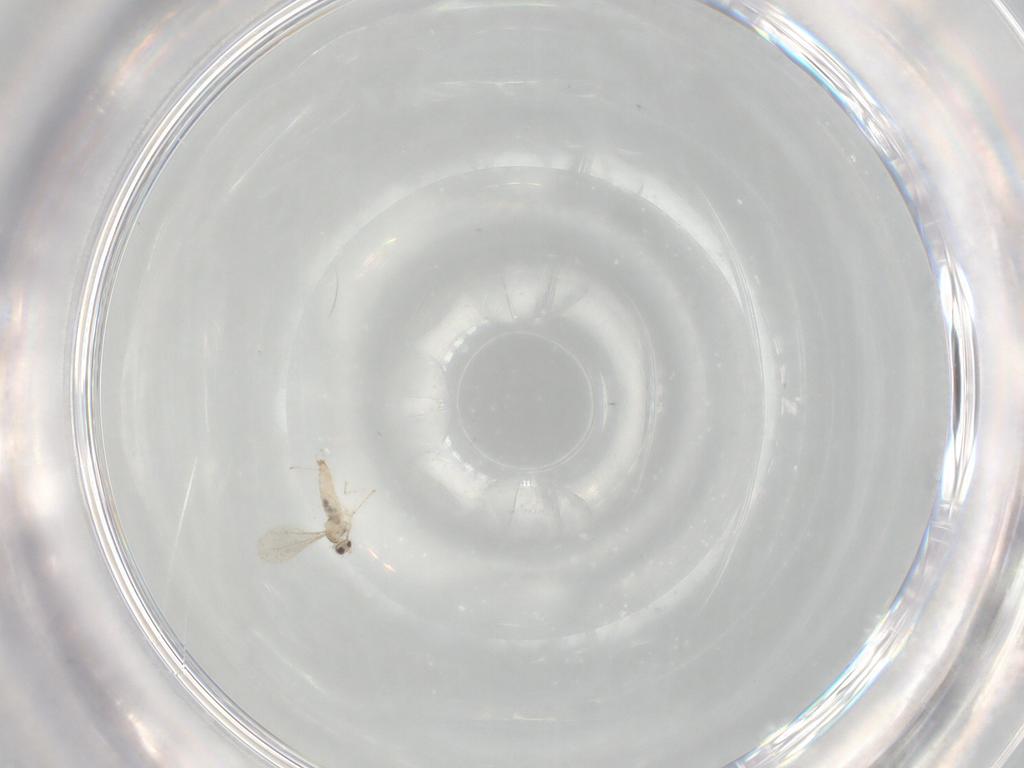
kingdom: Animalia
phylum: Arthropoda
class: Insecta
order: Diptera
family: Cecidomyiidae
